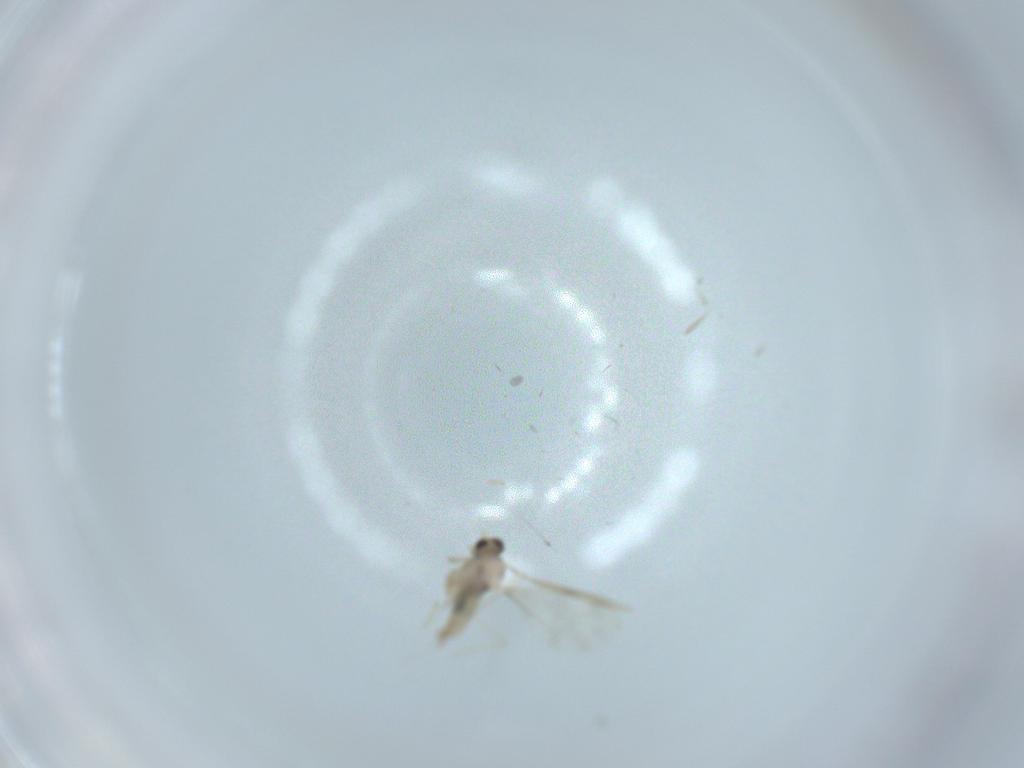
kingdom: Animalia
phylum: Arthropoda
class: Insecta
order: Diptera
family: Cecidomyiidae
